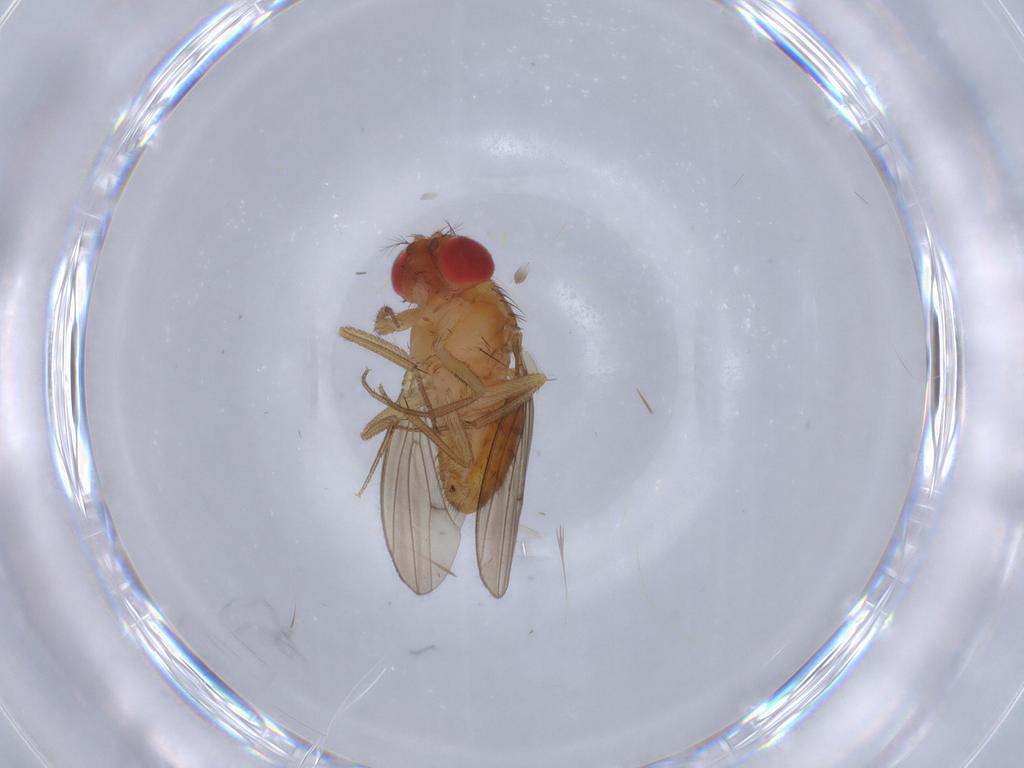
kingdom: Animalia
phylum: Arthropoda
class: Insecta
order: Diptera
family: Drosophilidae
